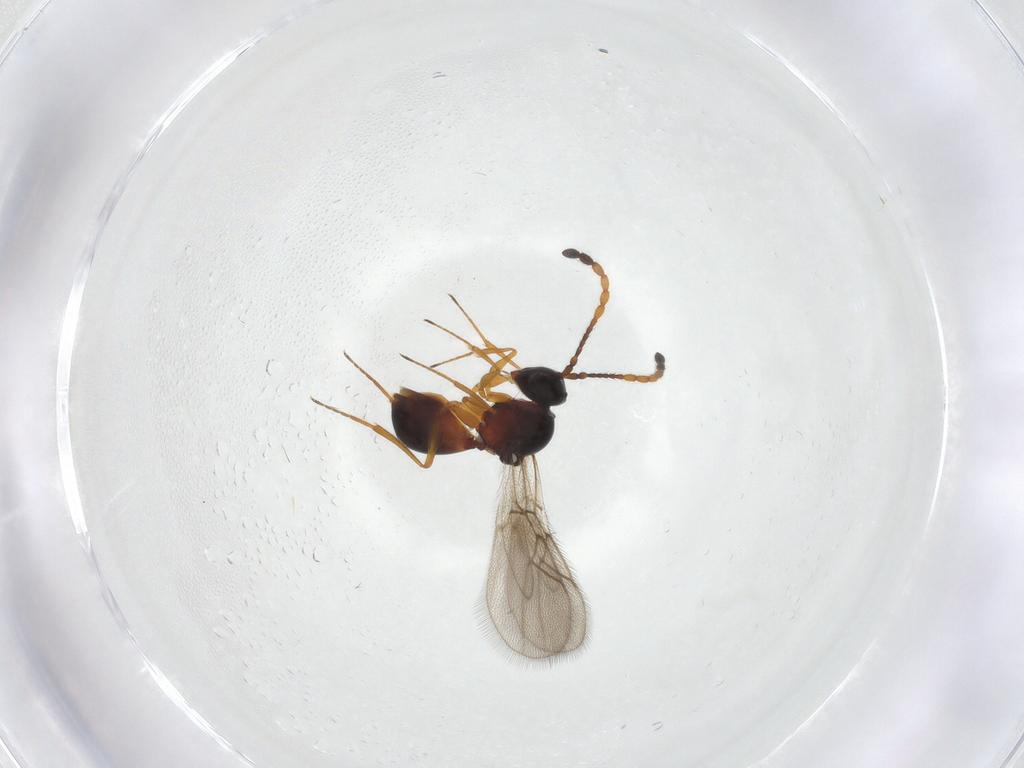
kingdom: Animalia
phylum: Arthropoda
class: Insecta
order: Hymenoptera
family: Figitidae
